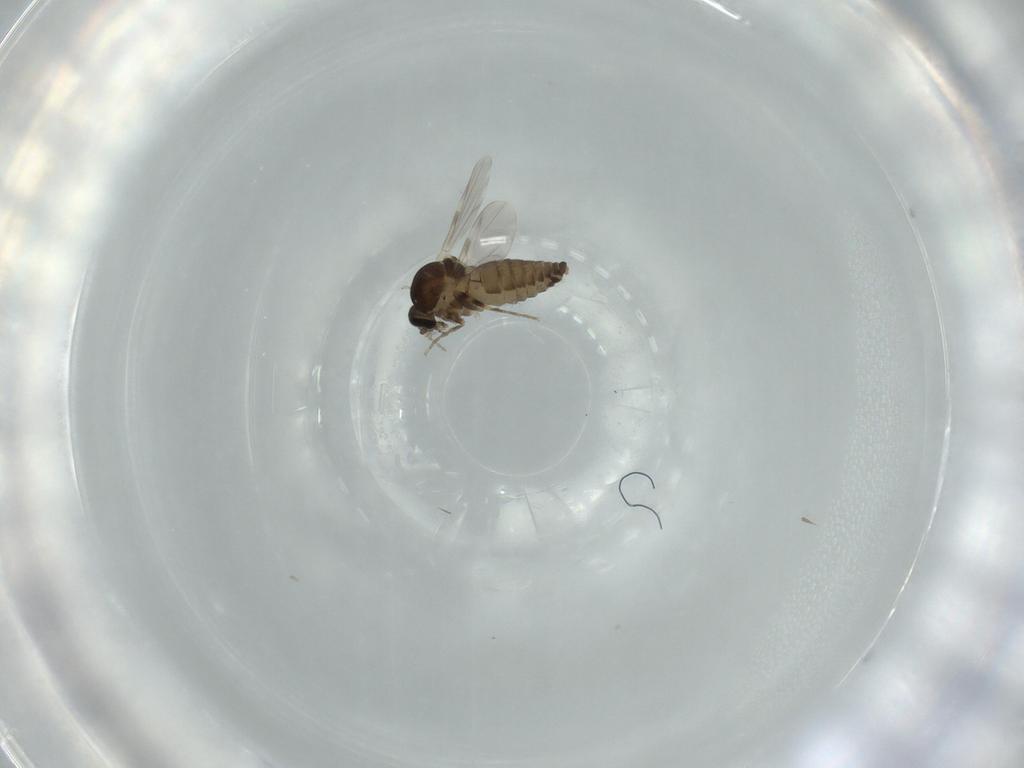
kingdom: Animalia
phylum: Arthropoda
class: Insecta
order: Diptera
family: Ceratopogonidae
